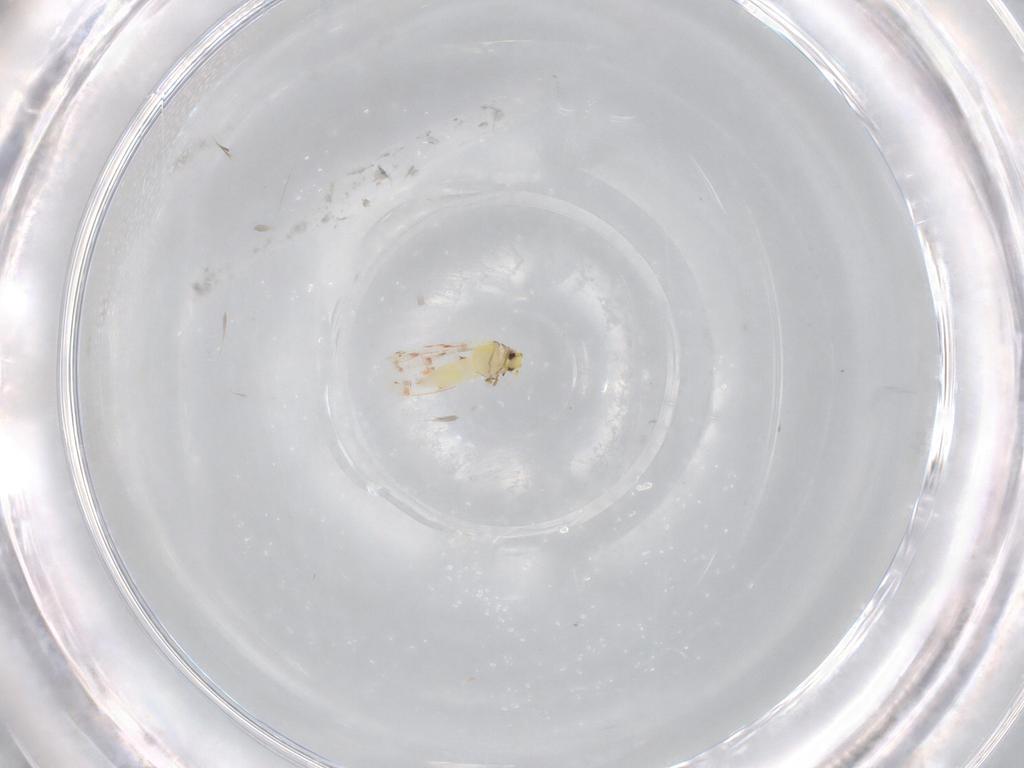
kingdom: Animalia
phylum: Arthropoda
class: Insecta
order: Hemiptera
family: Aleyrodidae
